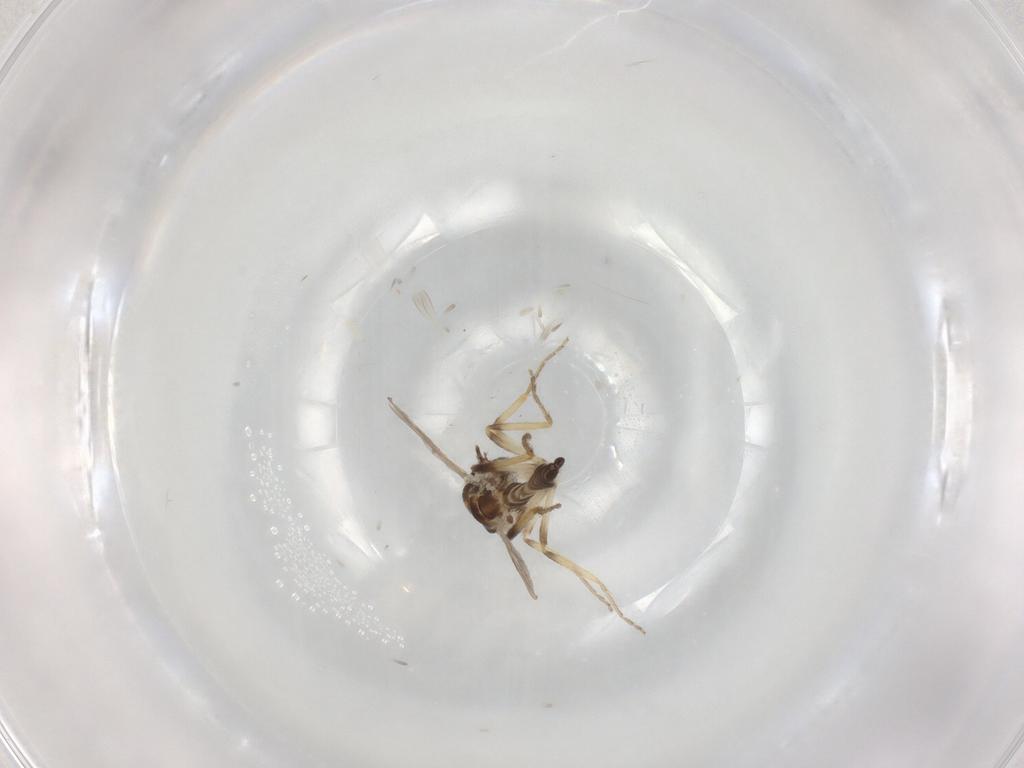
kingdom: Animalia
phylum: Arthropoda
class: Insecta
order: Diptera
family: Ceratopogonidae
